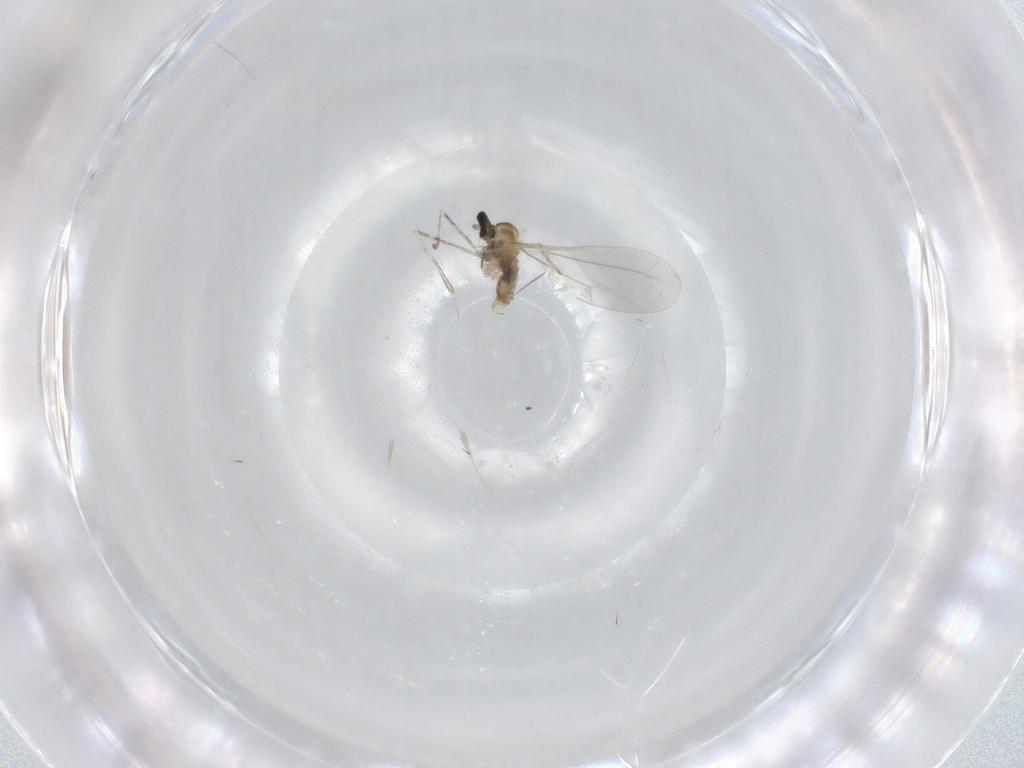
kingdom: Animalia
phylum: Arthropoda
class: Insecta
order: Diptera
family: Cecidomyiidae
